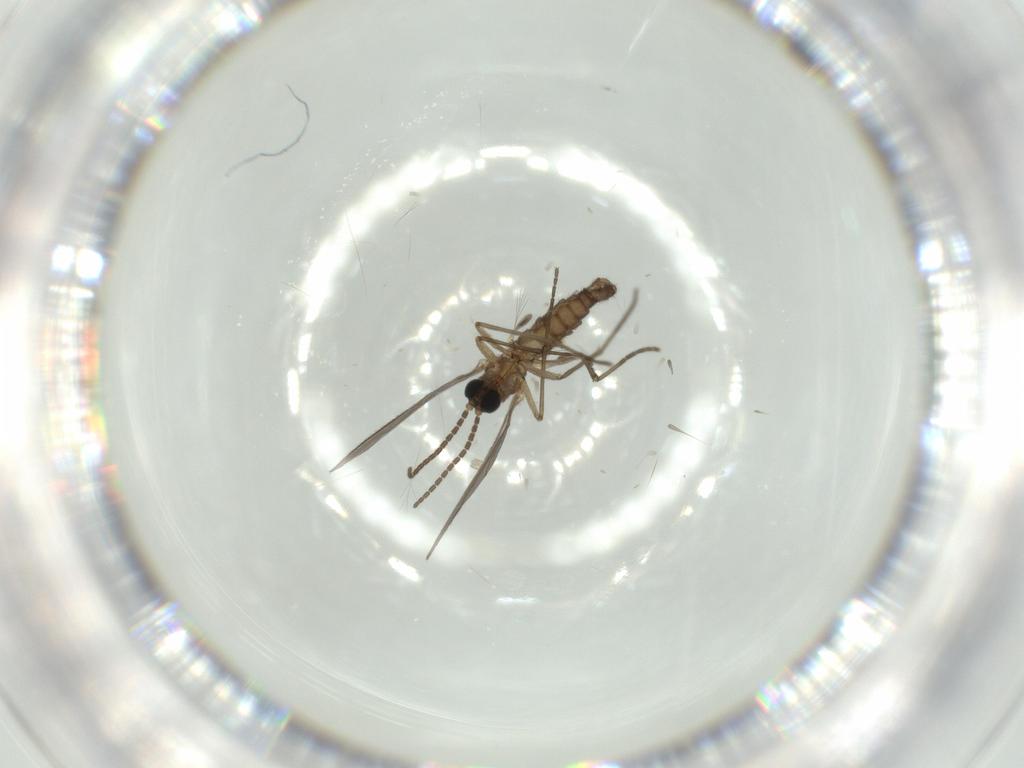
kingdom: Animalia
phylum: Arthropoda
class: Insecta
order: Diptera
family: Sciaridae
